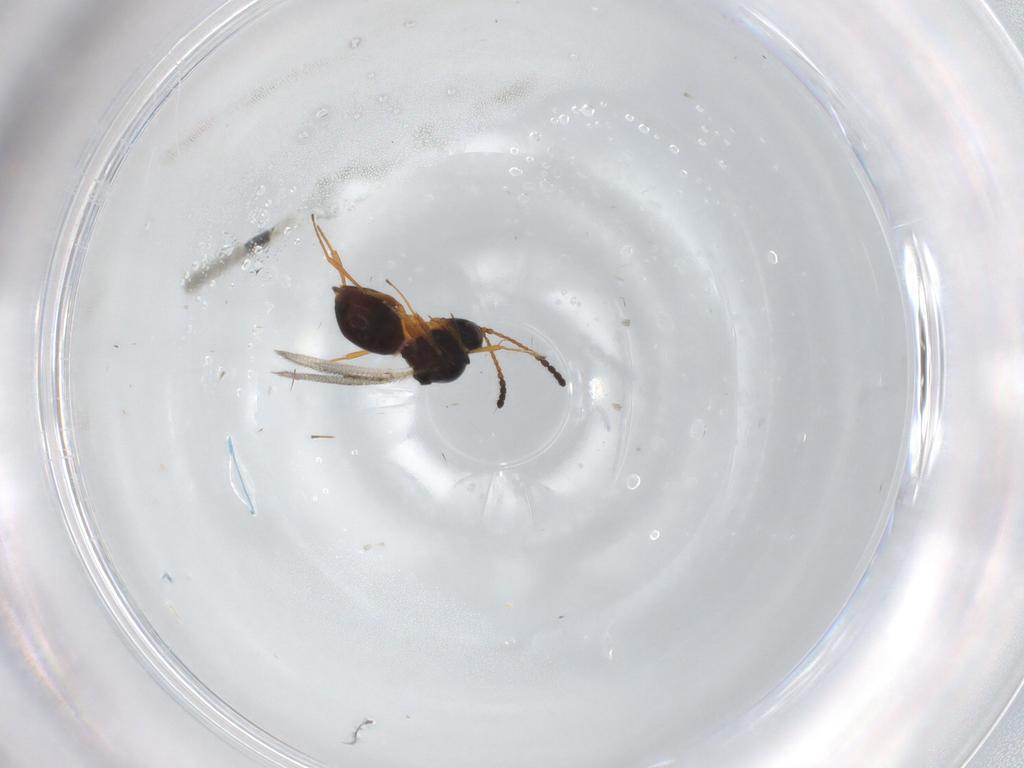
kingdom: Animalia
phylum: Arthropoda
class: Insecta
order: Hymenoptera
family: Figitidae
